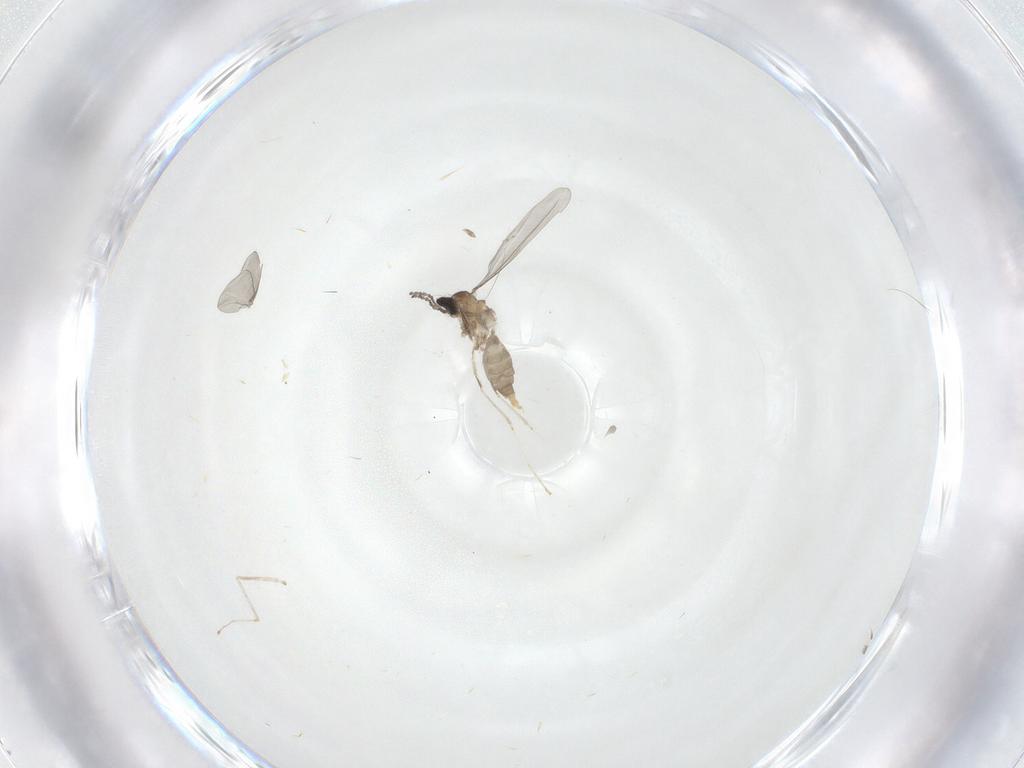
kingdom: Animalia
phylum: Arthropoda
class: Insecta
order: Diptera
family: Cecidomyiidae
